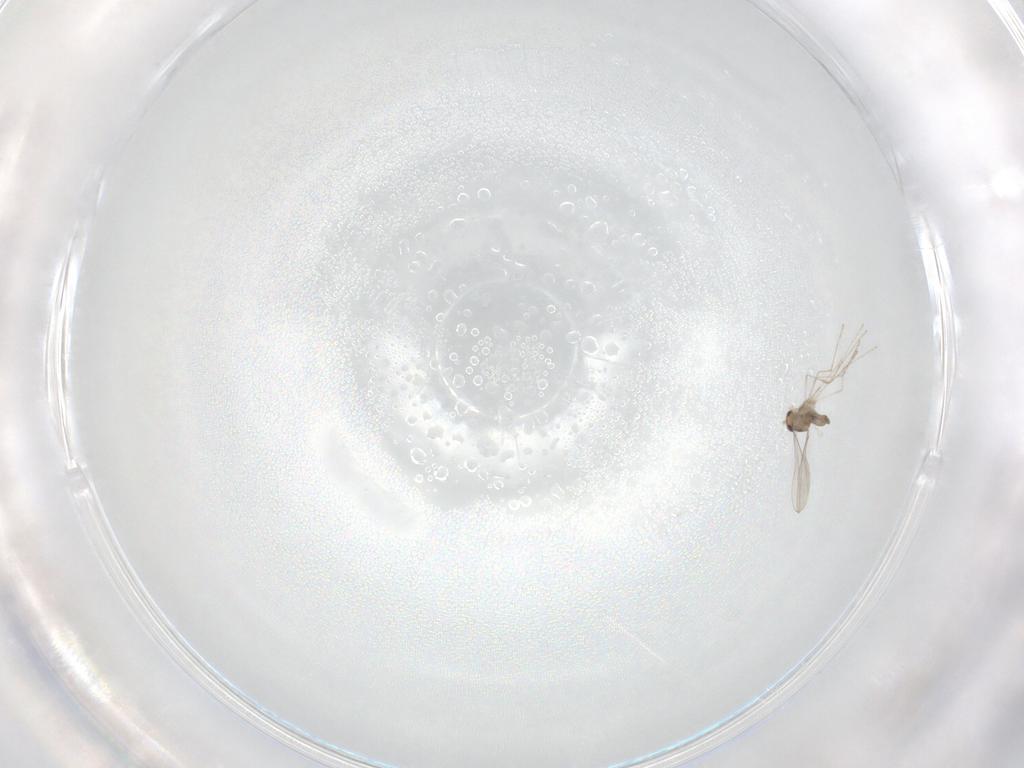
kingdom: Animalia
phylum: Arthropoda
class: Insecta
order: Diptera
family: Cecidomyiidae
